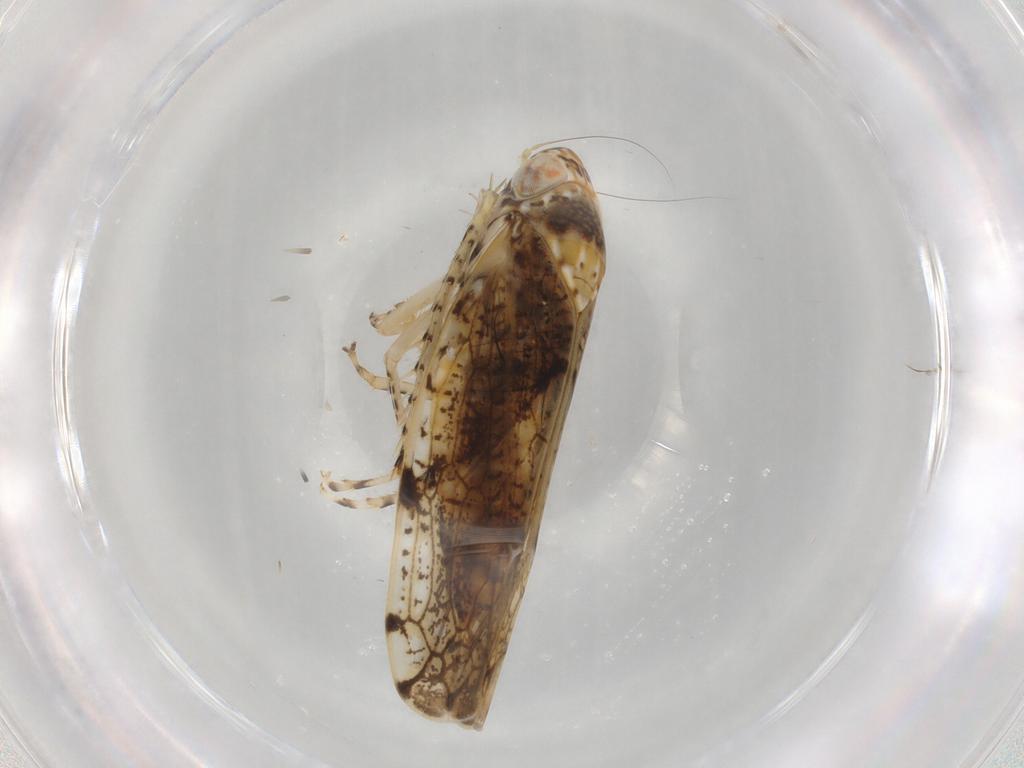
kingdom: Animalia
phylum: Arthropoda
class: Insecta
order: Hemiptera
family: Cicadellidae
